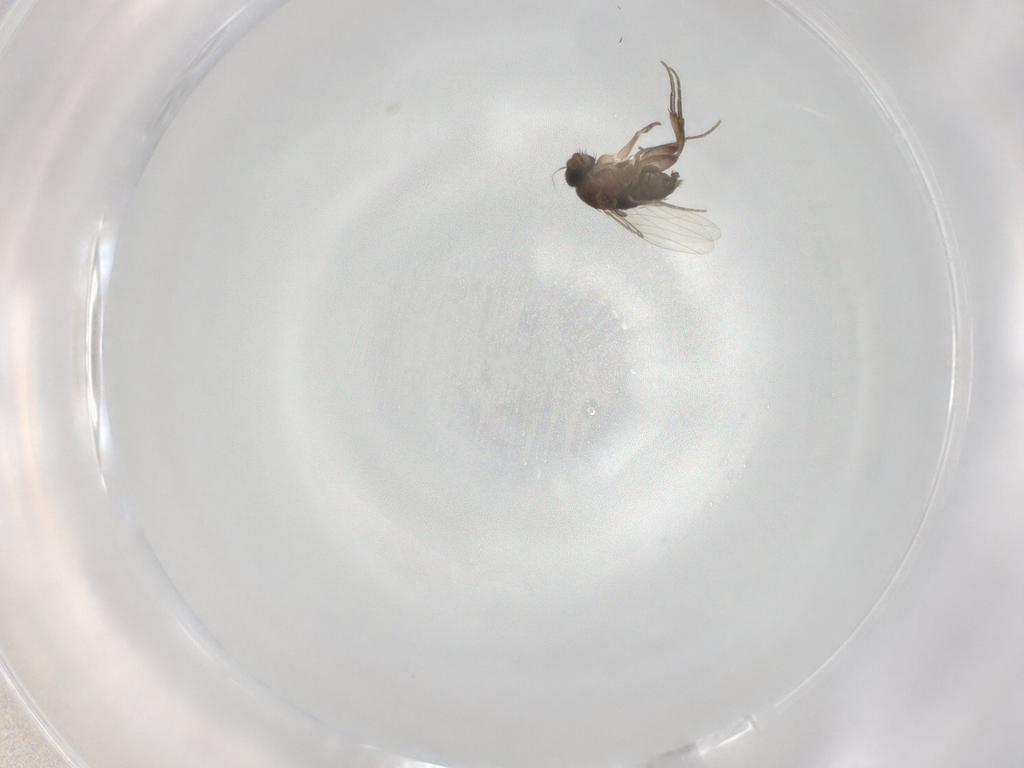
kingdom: Animalia
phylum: Arthropoda
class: Insecta
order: Diptera
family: Phoridae
